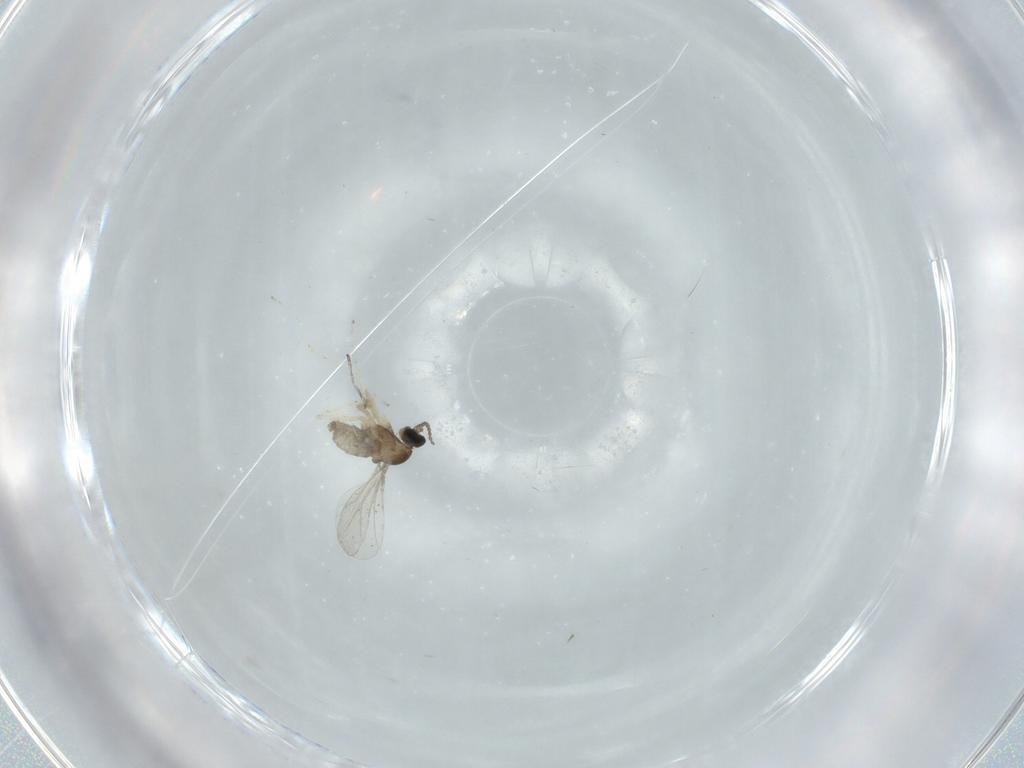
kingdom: Animalia
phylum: Arthropoda
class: Insecta
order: Diptera
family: Cecidomyiidae
